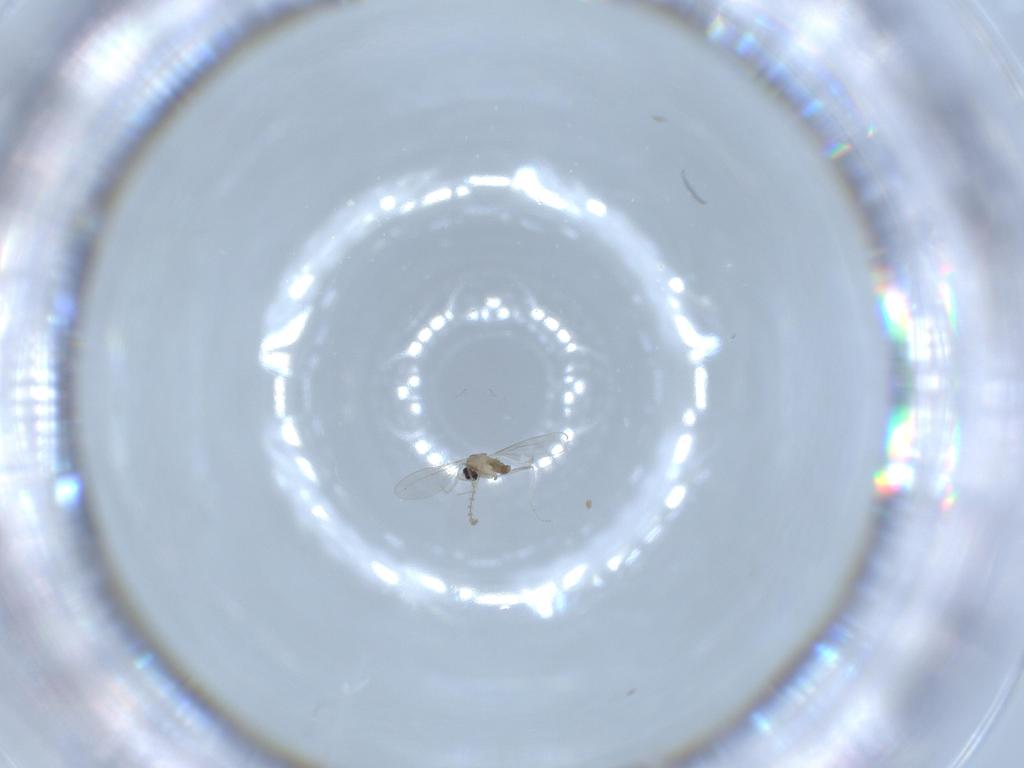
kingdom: Animalia
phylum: Arthropoda
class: Insecta
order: Diptera
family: Cecidomyiidae
